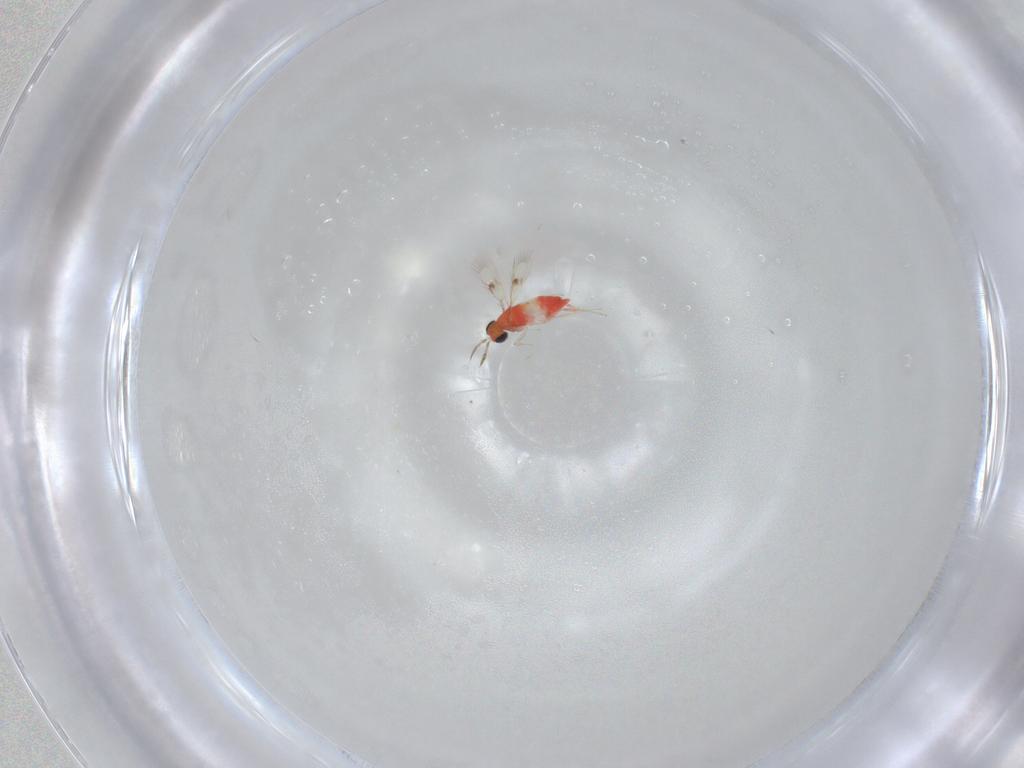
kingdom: Animalia
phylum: Arthropoda
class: Insecta
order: Hymenoptera
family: Trichogrammatidae
